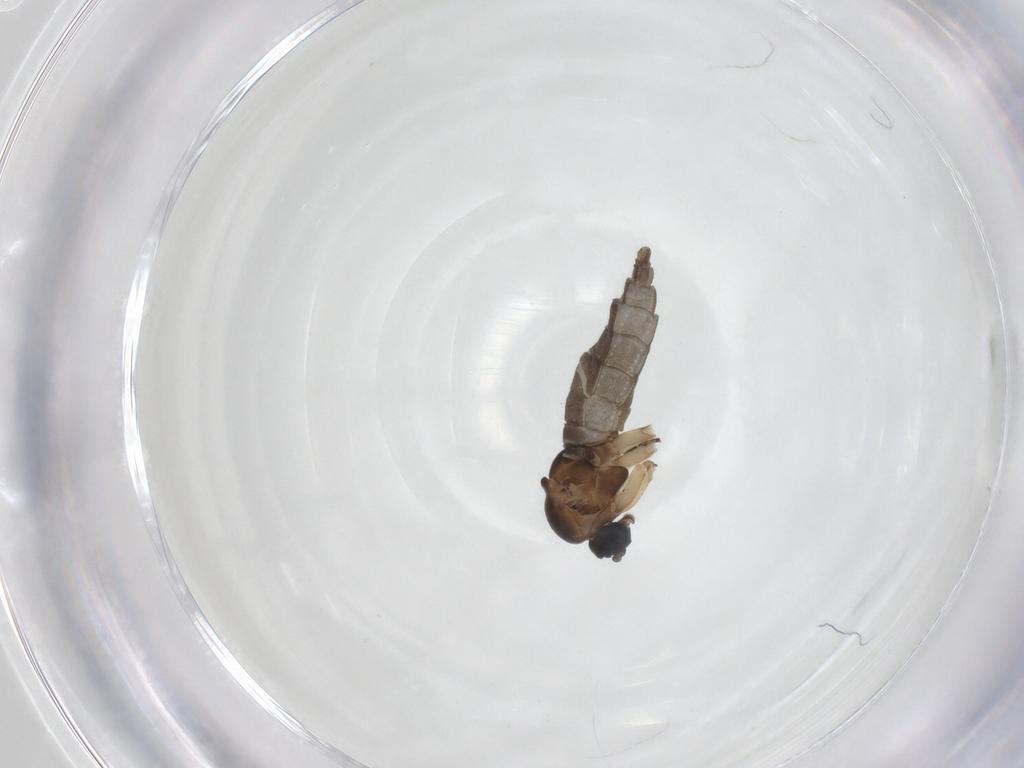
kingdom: Animalia
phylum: Arthropoda
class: Insecta
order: Diptera
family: Sciaridae
